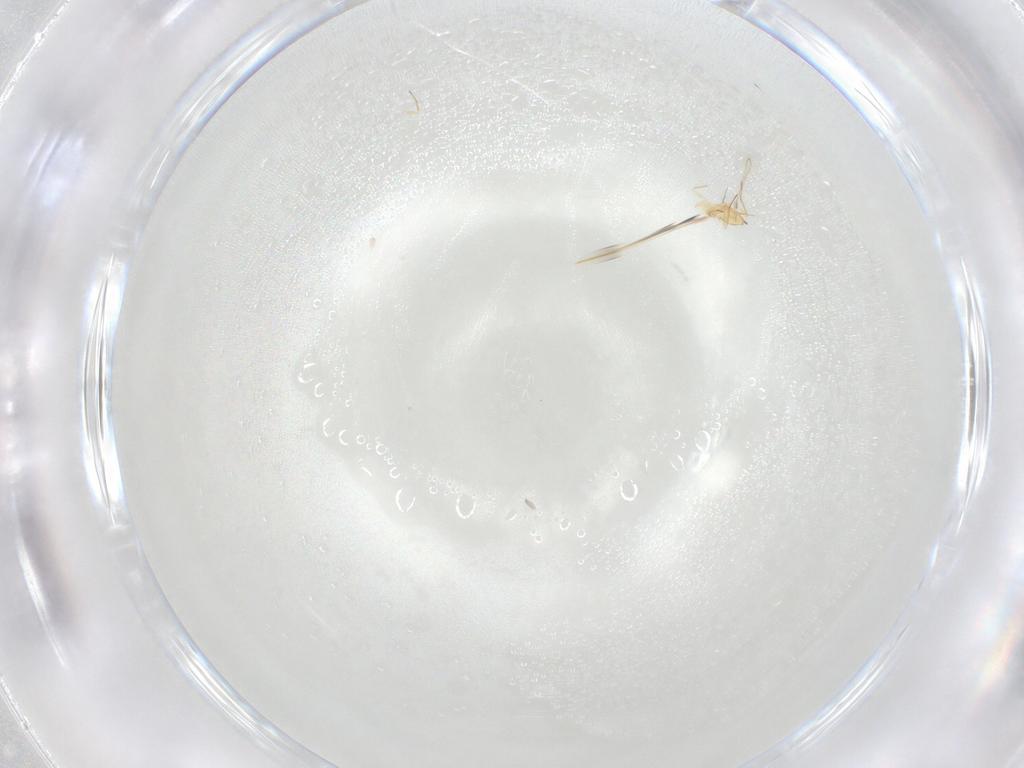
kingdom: Animalia
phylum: Arthropoda
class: Insecta
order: Hymenoptera
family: Mymaridae
